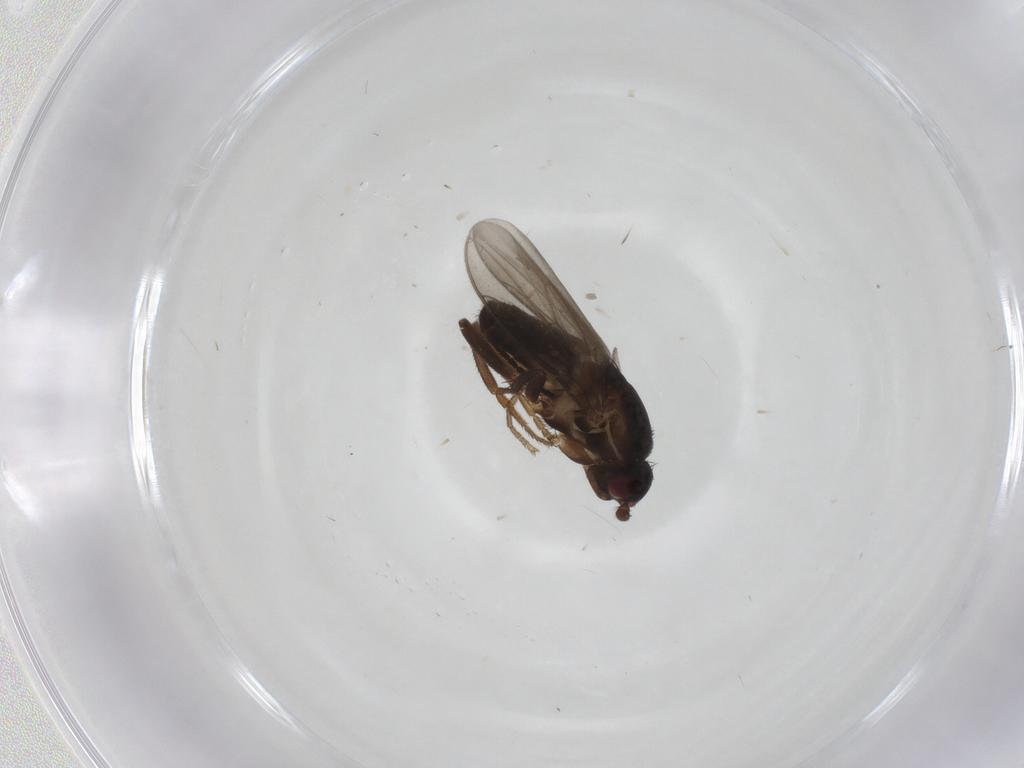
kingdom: Animalia
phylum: Arthropoda
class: Insecta
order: Diptera
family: Sphaeroceridae
